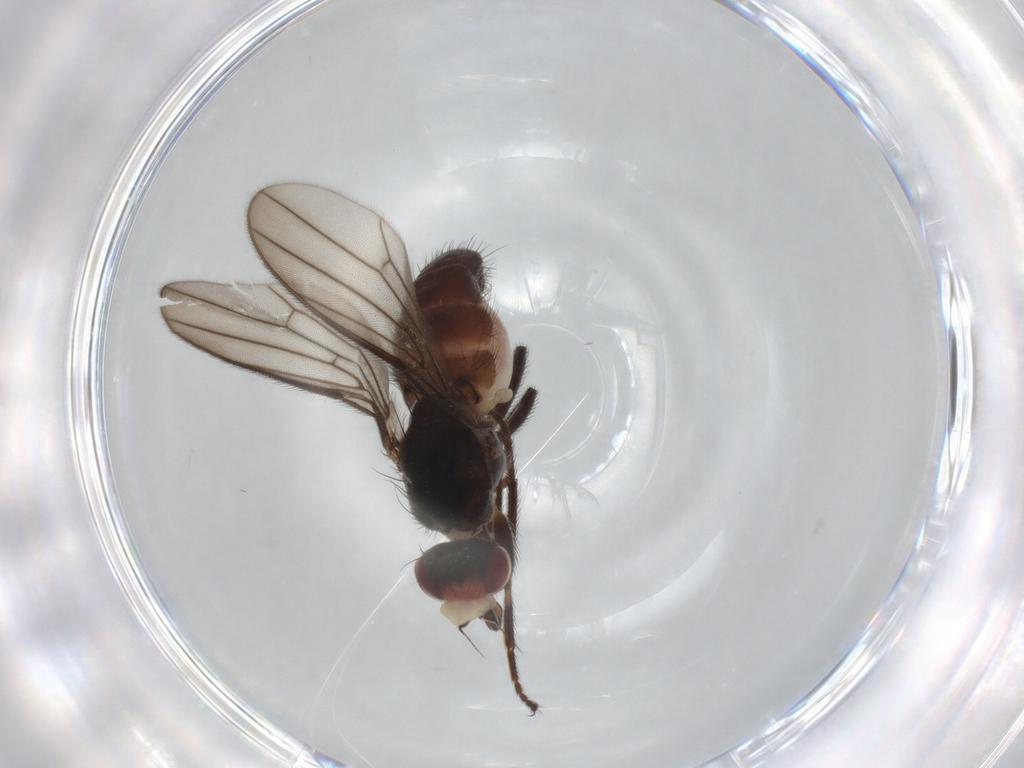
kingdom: Animalia
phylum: Arthropoda
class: Insecta
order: Diptera
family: Chloropidae
